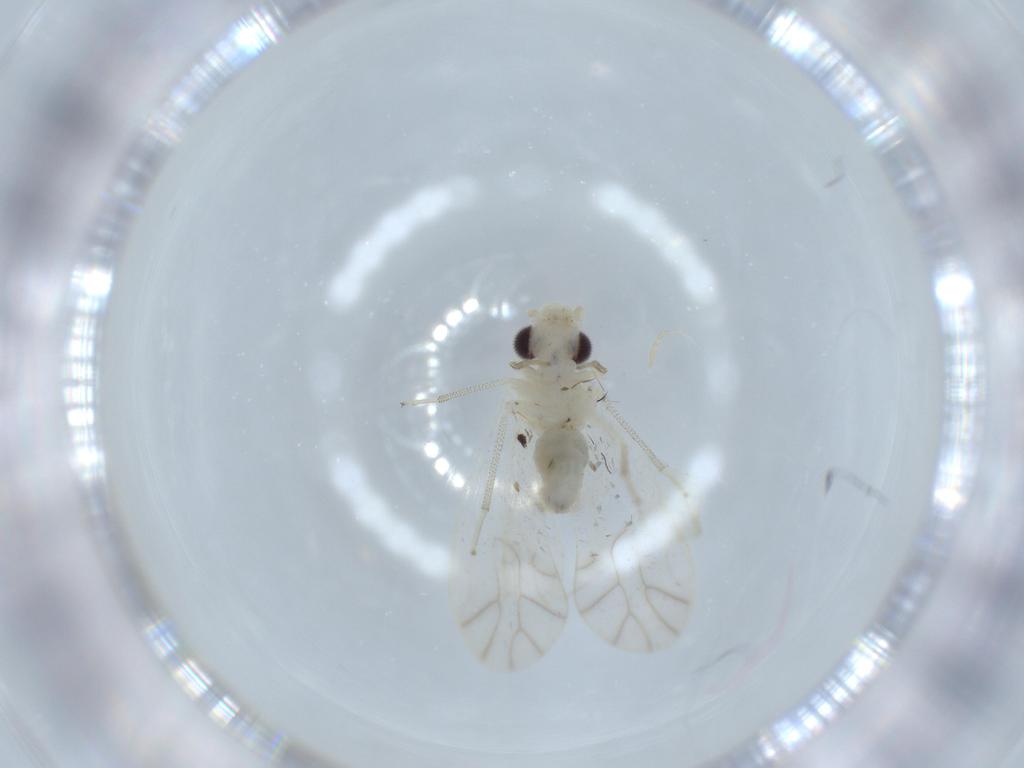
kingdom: Animalia
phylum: Arthropoda
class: Insecta
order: Psocodea
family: Caeciliusidae
